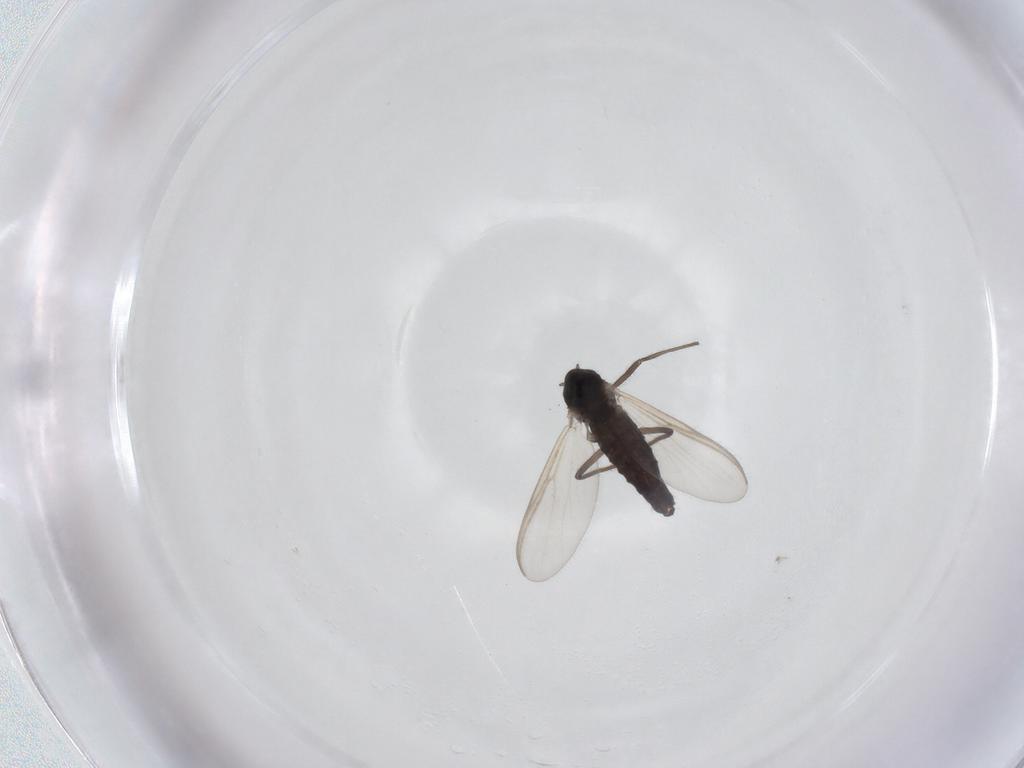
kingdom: Animalia
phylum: Arthropoda
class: Insecta
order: Diptera
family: Chironomidae
